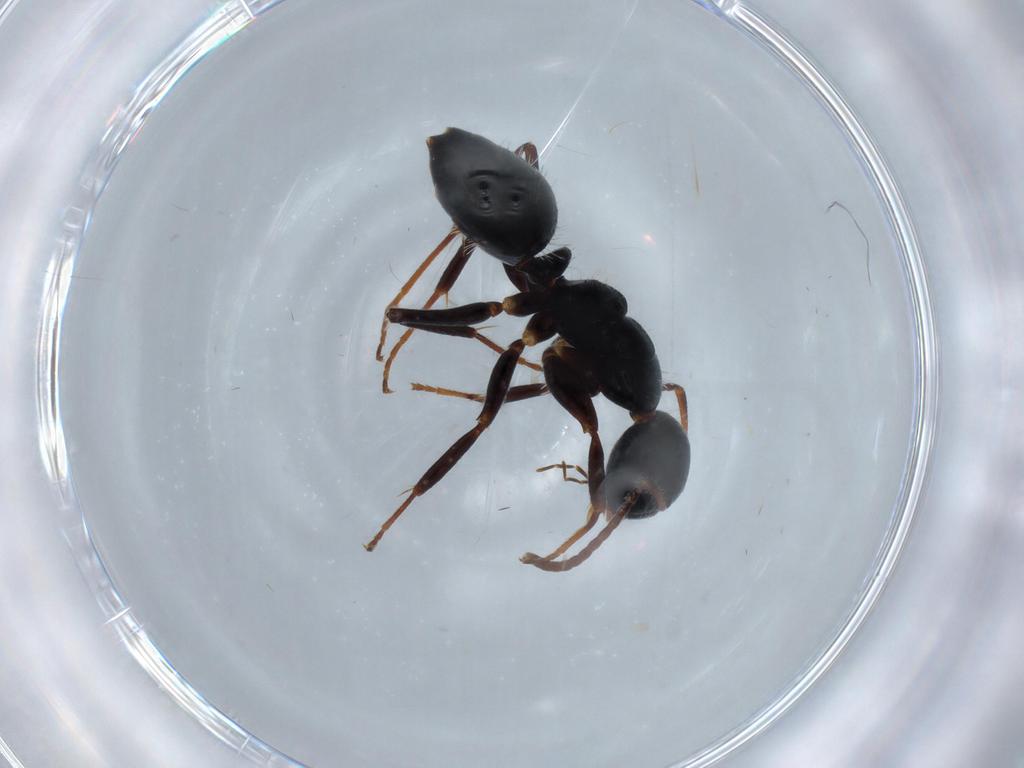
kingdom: Animalia
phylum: Arthropoda
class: Insecta
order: Hymenoptera
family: Formicidae
